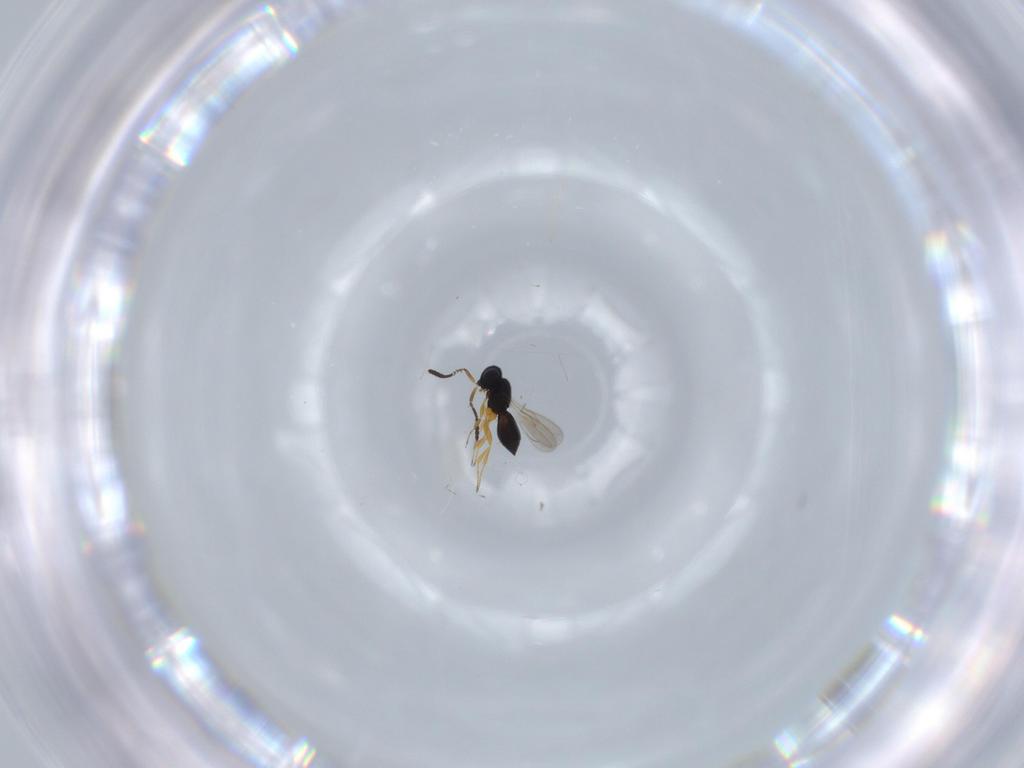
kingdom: Animalia
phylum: Arthropoda
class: Insecta
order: Hymenoptera
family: Scelionidae
